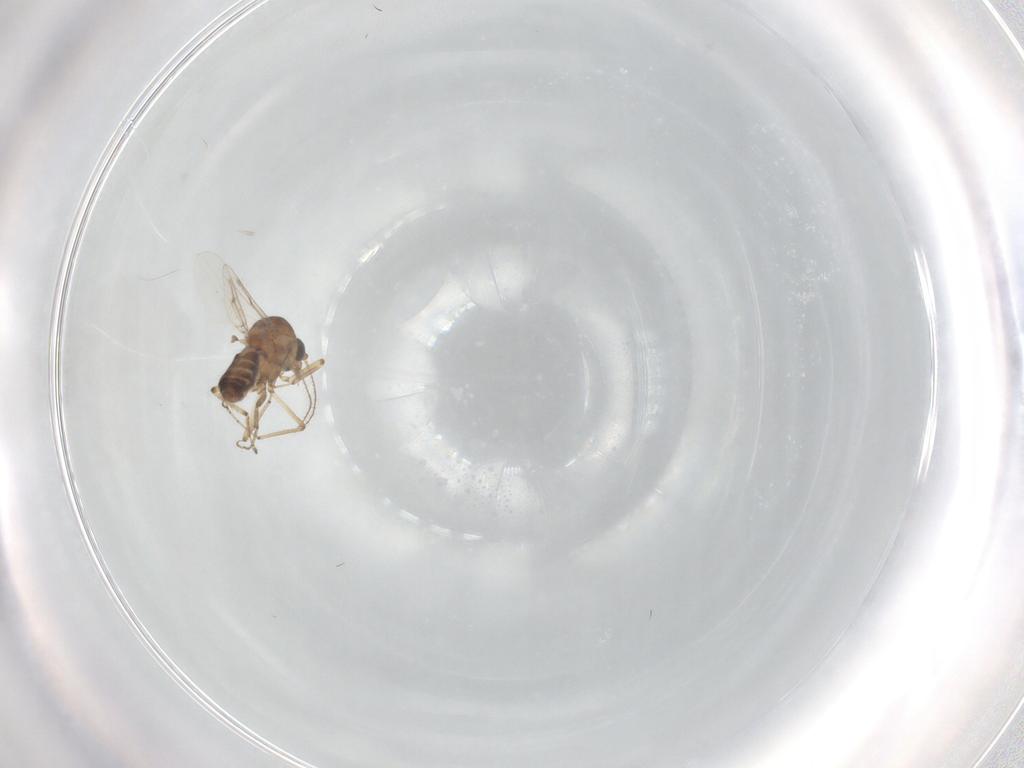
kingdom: Animalia
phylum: Arthropoda
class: Insecta
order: Diptera
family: Ceratopogonidae
